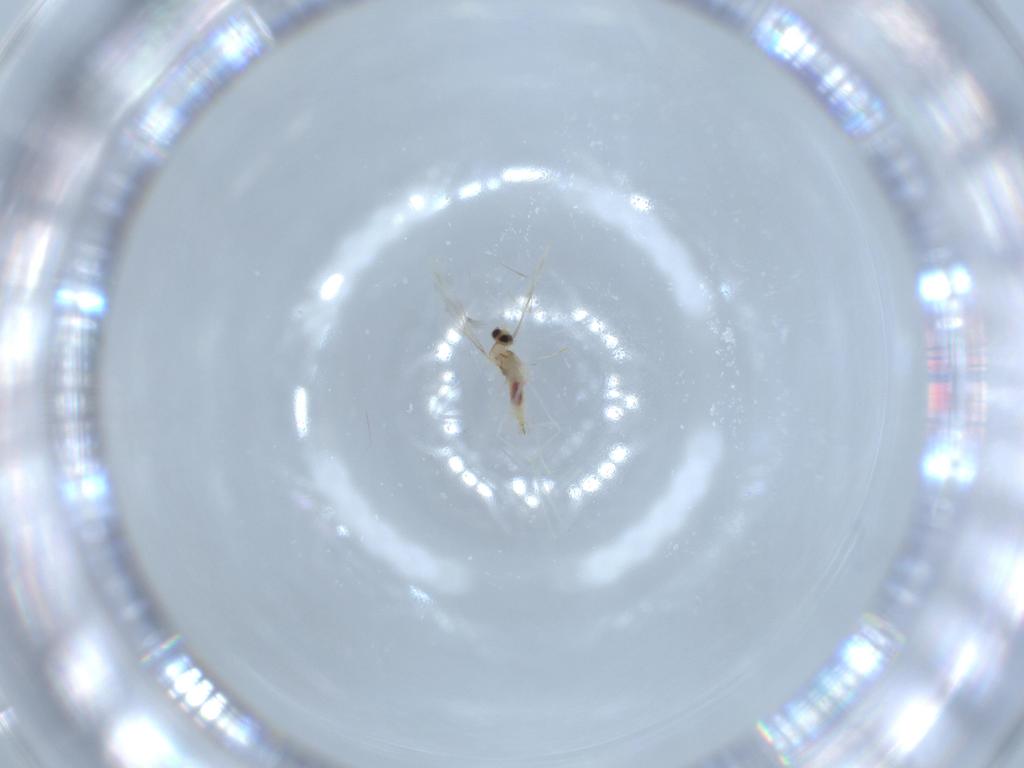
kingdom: Animalia
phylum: Arthropoda
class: Insecta
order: Diptera
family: Cecidomyiidae
